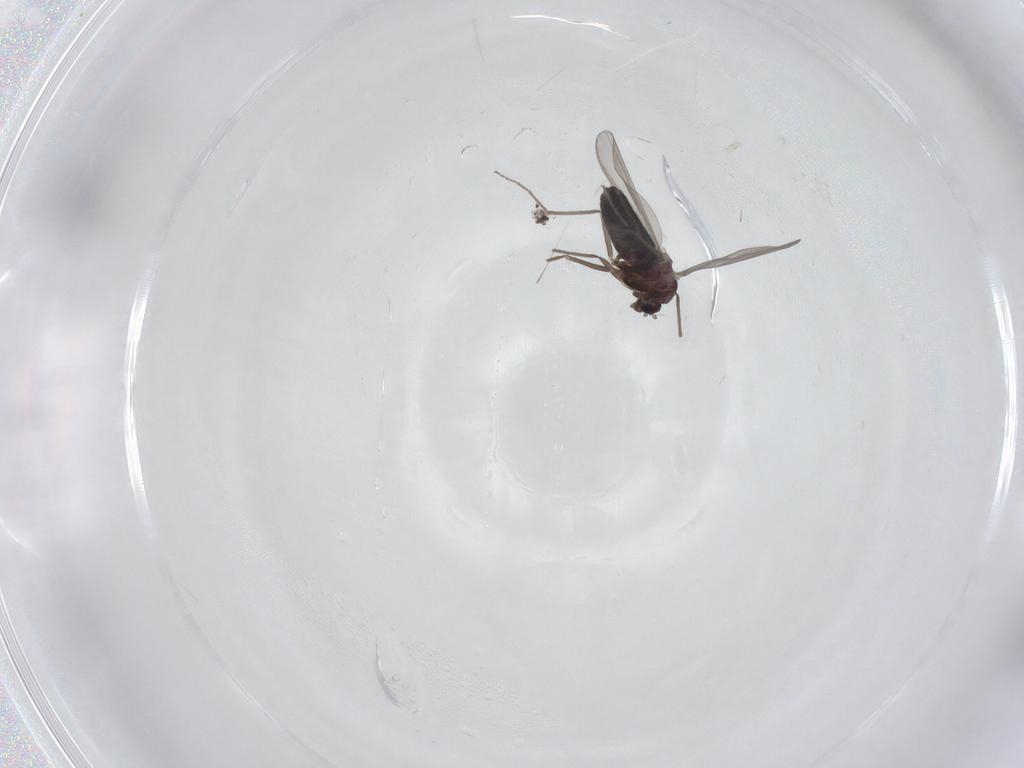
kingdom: Animalia
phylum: Arthropoda
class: Insecta
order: Diptera
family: Chironomidae
